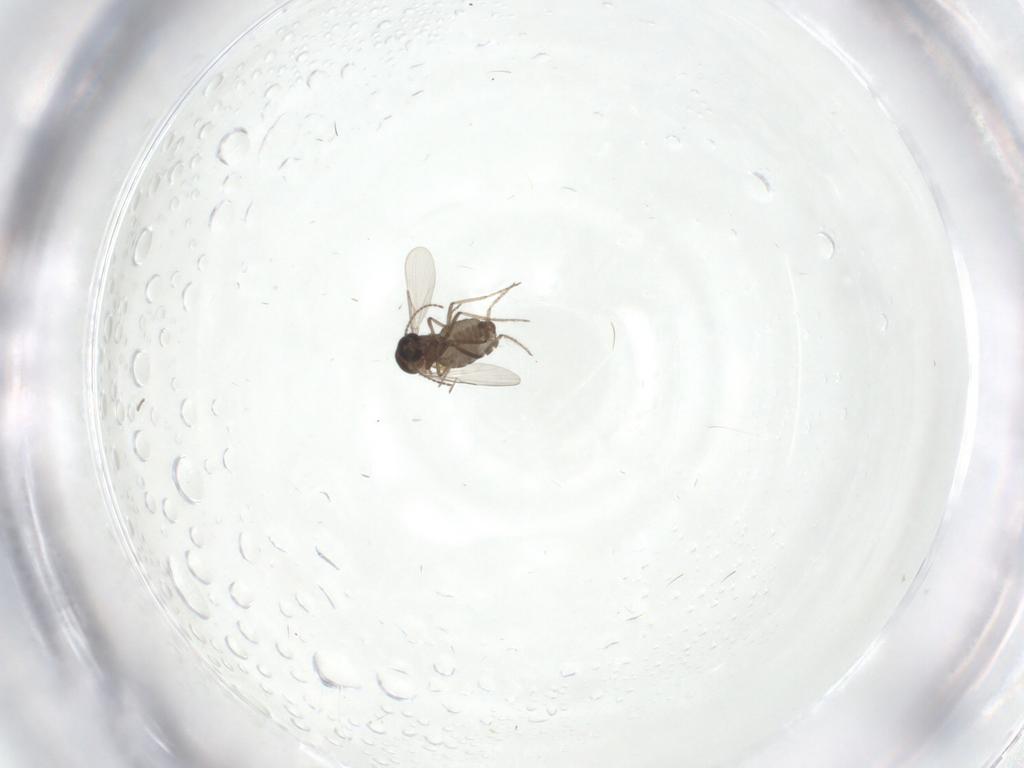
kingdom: Animalia
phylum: Arthropoda
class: Insecta
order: Diptera
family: Ceratopogonidae
